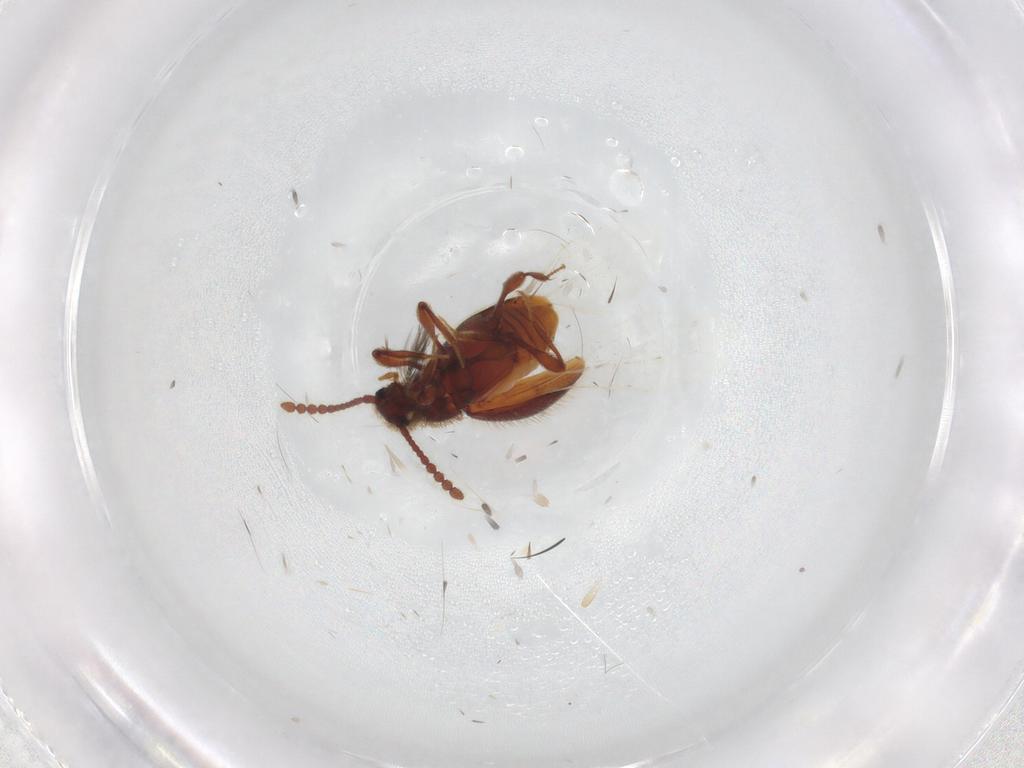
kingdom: Animalia
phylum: Arthropoda
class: Insecta
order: Coleoptera
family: Staphylinidae
